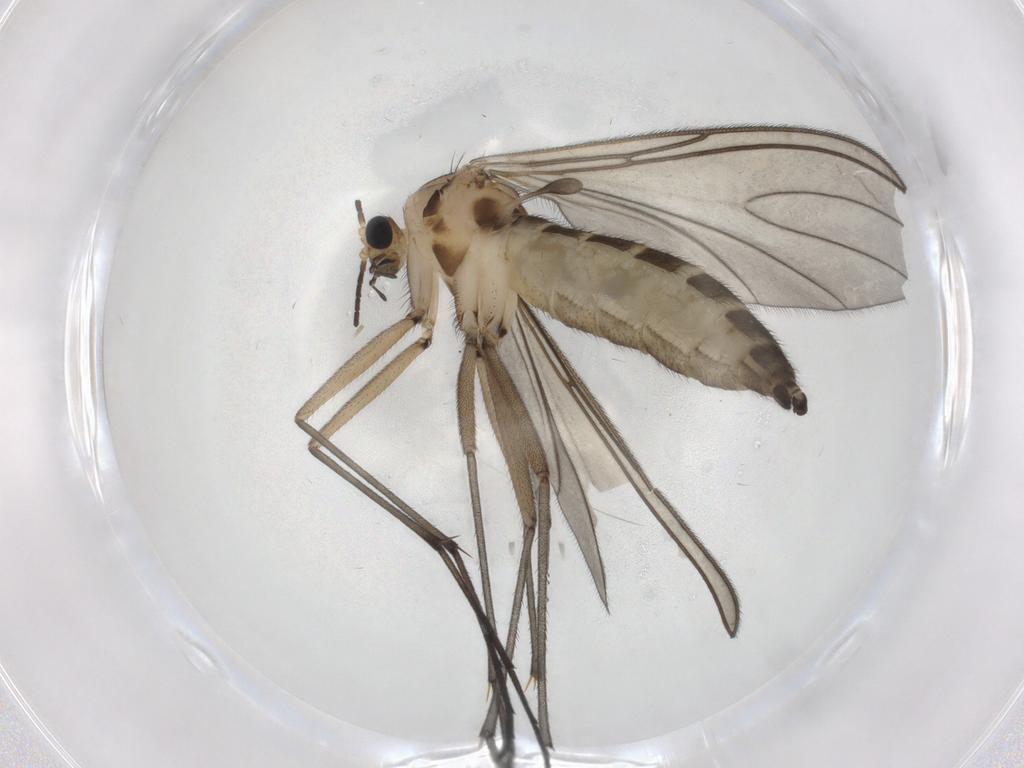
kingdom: Animalia
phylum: Arthropoda
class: Insecta
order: Diptera
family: Sciaridae
